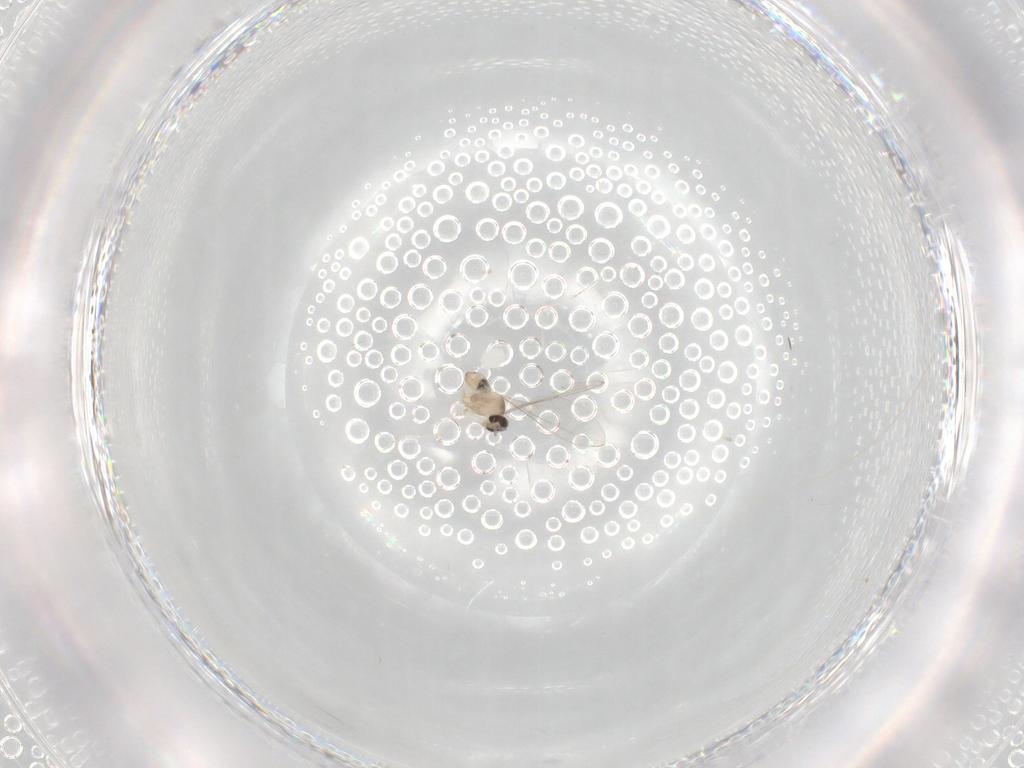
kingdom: Animalia
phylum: Arthropoda
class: Insecta
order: Diptera
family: Cecidomyiidae
